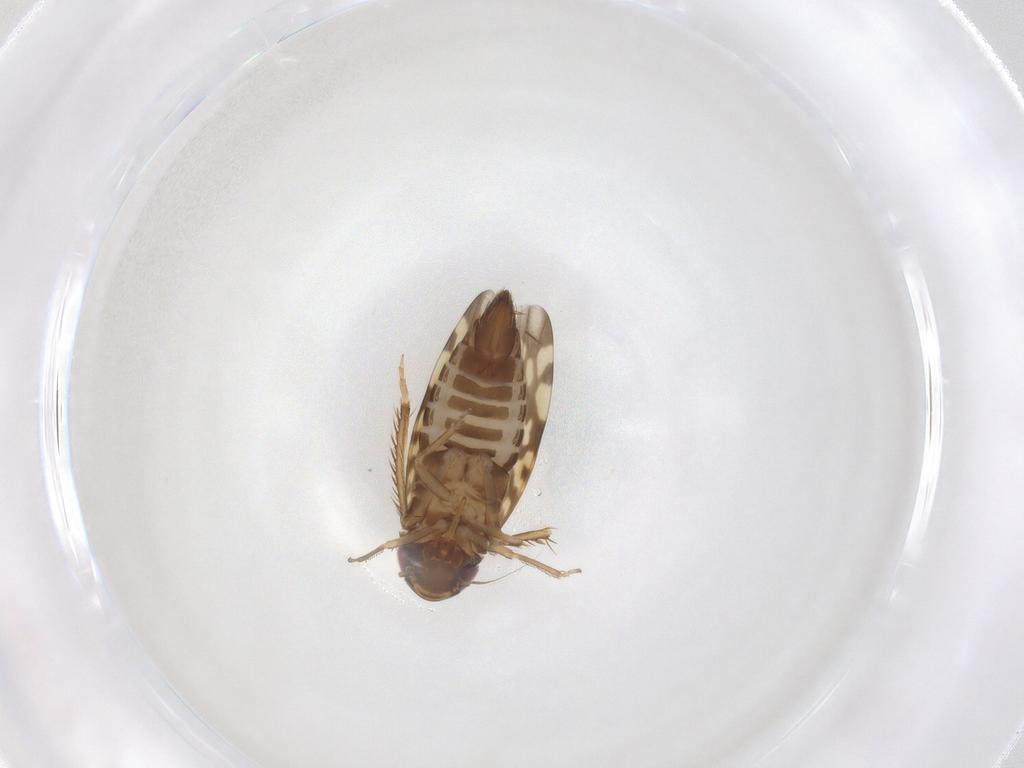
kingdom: Animalia
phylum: Arthropoda
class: Insecta
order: Hemiptera
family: Cicadellidae
